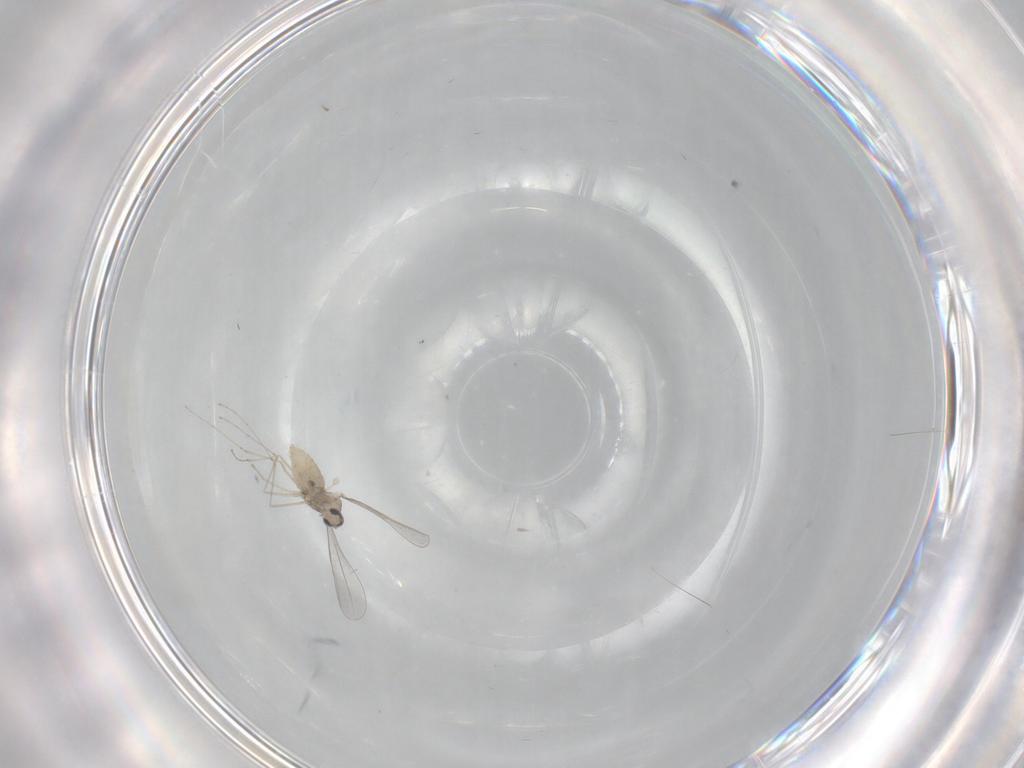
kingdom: Animalia
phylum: Arthropoda
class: Insecta
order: Diptera
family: Cecidomyiidae
